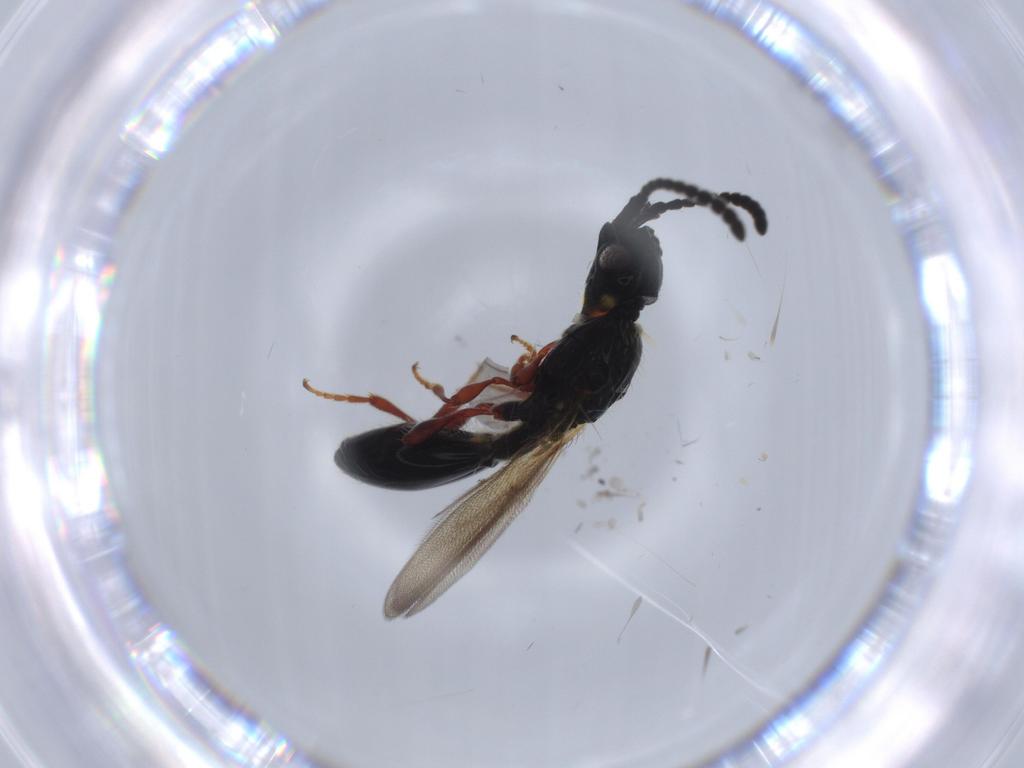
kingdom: Animalia
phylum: Arthropoda
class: Insecta
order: Hymenoptera
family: Diapriidae
